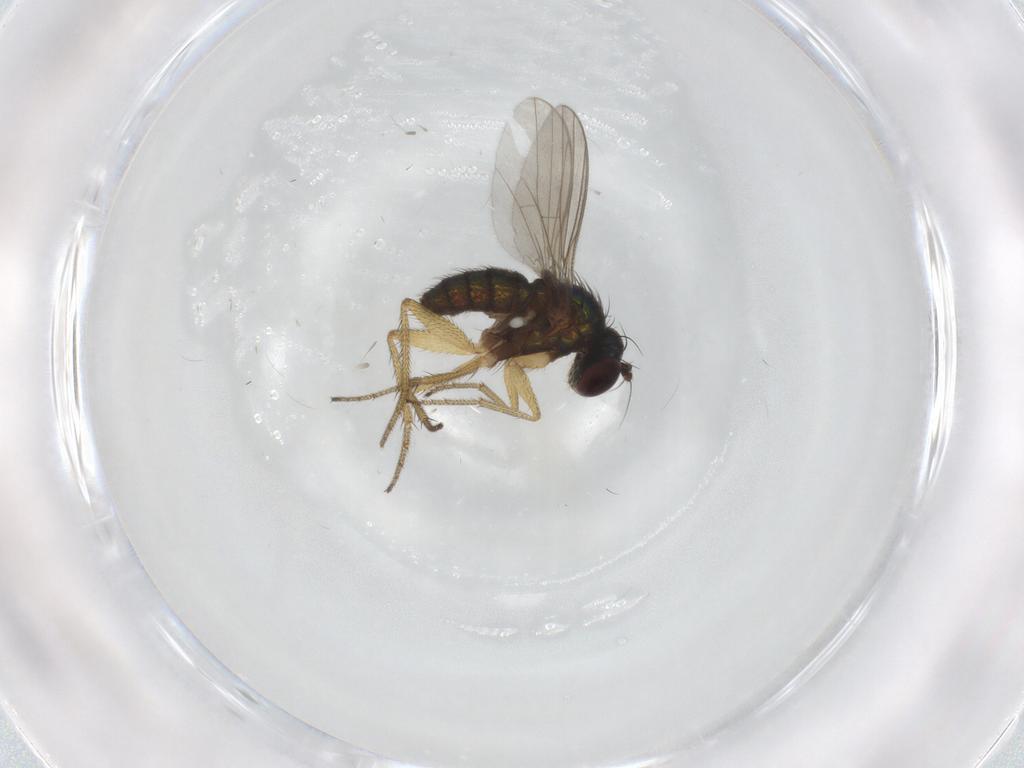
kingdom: Animalia
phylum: Arthropoda
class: Insecta
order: Diptera
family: Dolichopodidae
